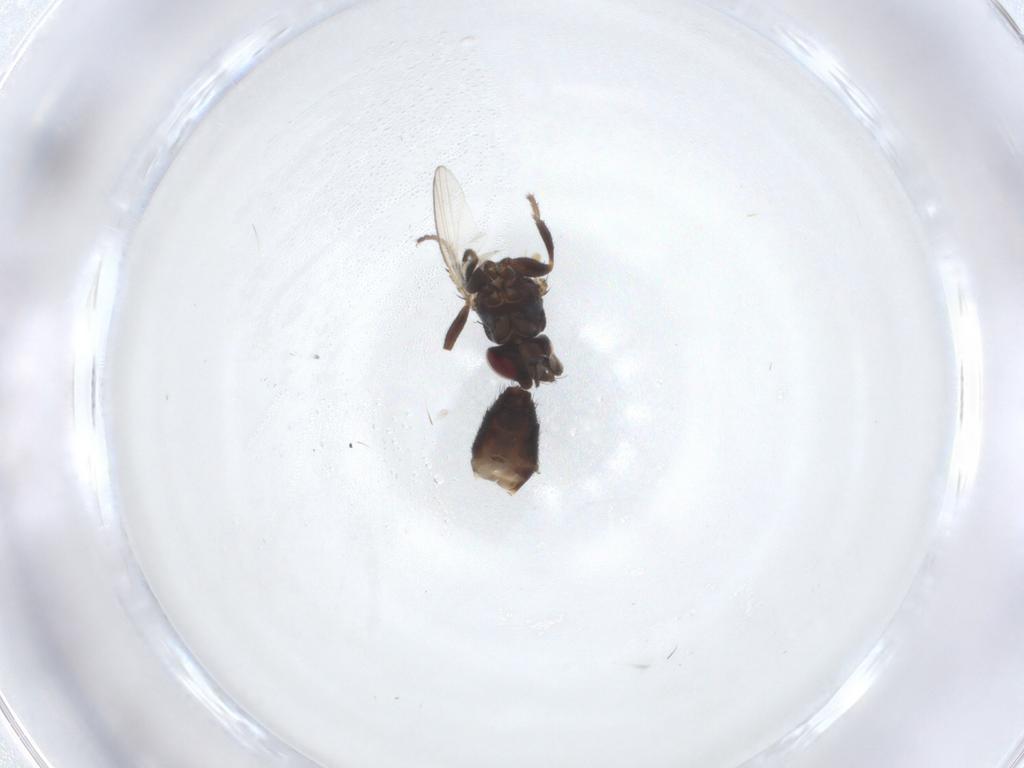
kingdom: Animalia
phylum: Arthropoda
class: Insecta
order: Diptera
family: Milichiidae
